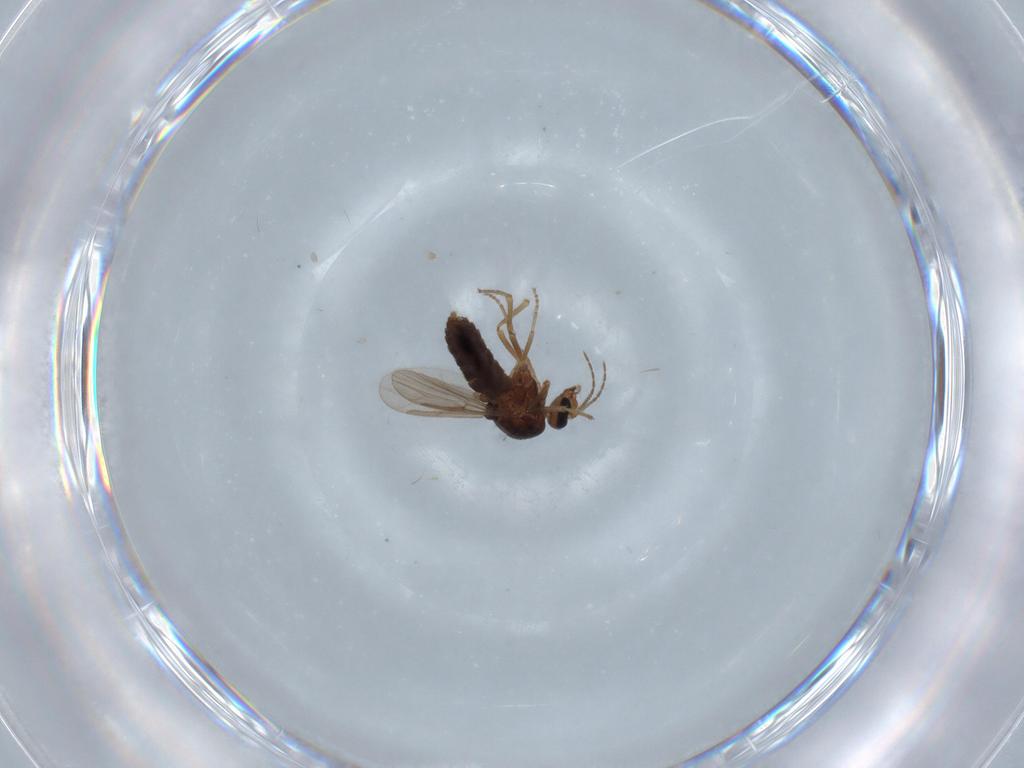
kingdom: Animalia
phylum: Arthropoda
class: Insecta
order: Diptera
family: Cecidomyiidae
